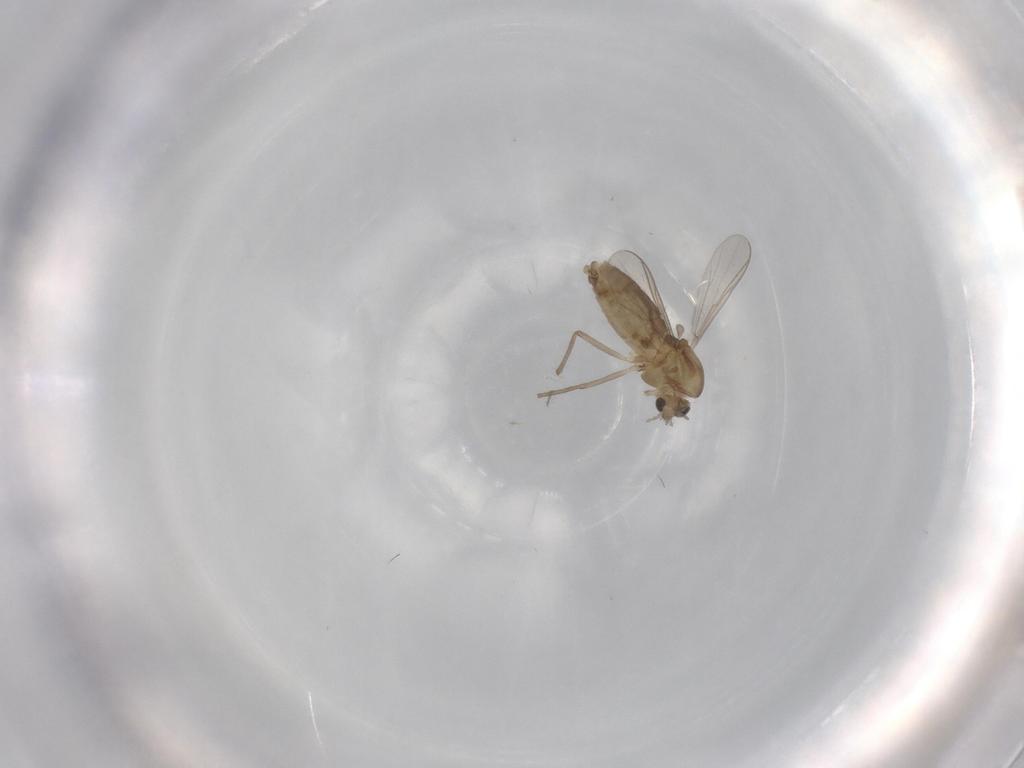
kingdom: Animalia
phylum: Arthropoda
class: Insecta
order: Diptera
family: Chironomidae
